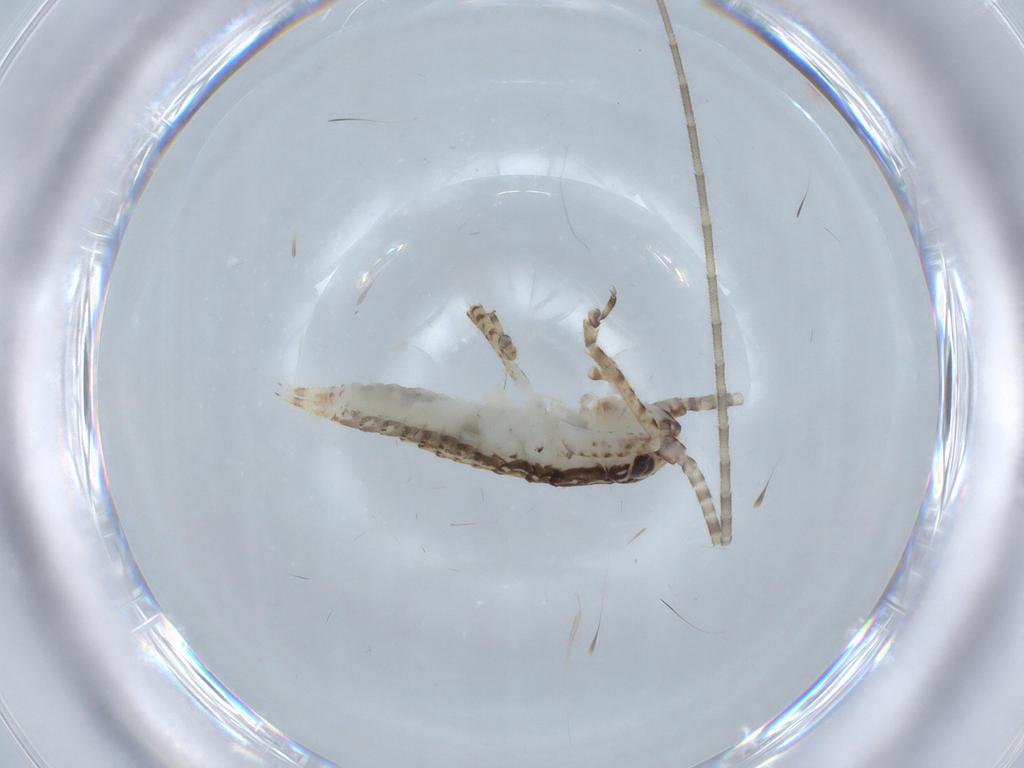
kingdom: Animalia
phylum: Arthropoda
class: Insecta
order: Orthoptera
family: Gryllidae
